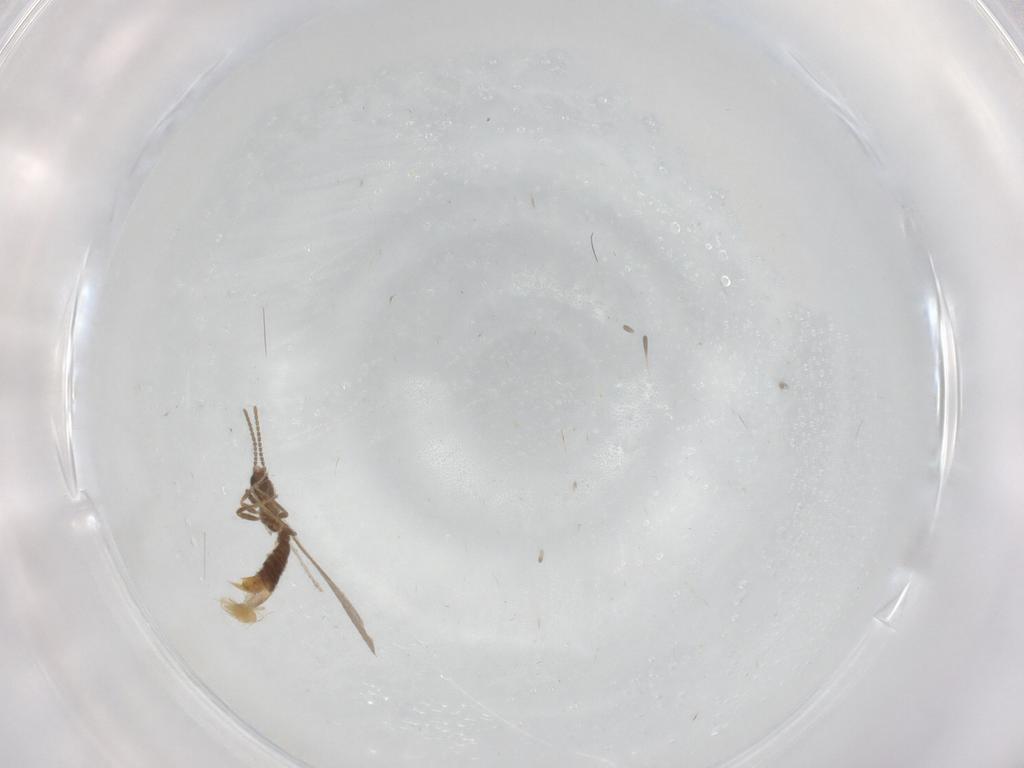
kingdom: Animalia
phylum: Arthropoda
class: Insecta
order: Hymenoptera
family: Formicidae
